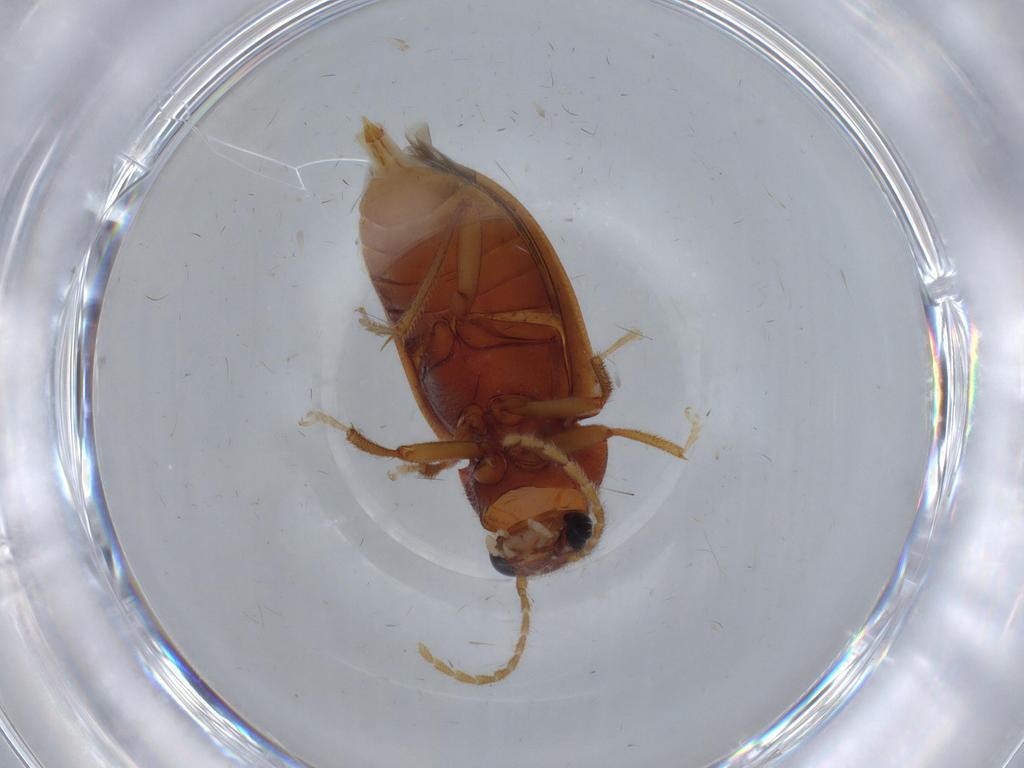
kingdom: Animalia
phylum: Arthropoda
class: Insecta
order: Coleoptera
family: Ptilodactylidae
